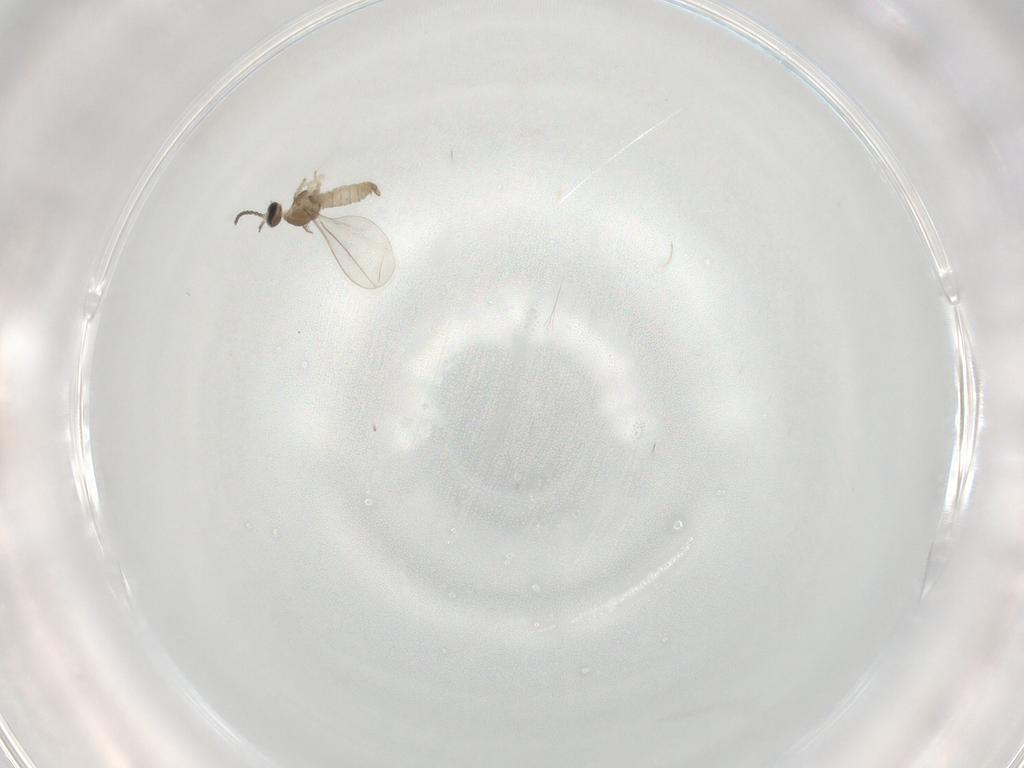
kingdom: Animalia
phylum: Arthropoda
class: Insecta
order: Diptera
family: Cecidomyiidae
